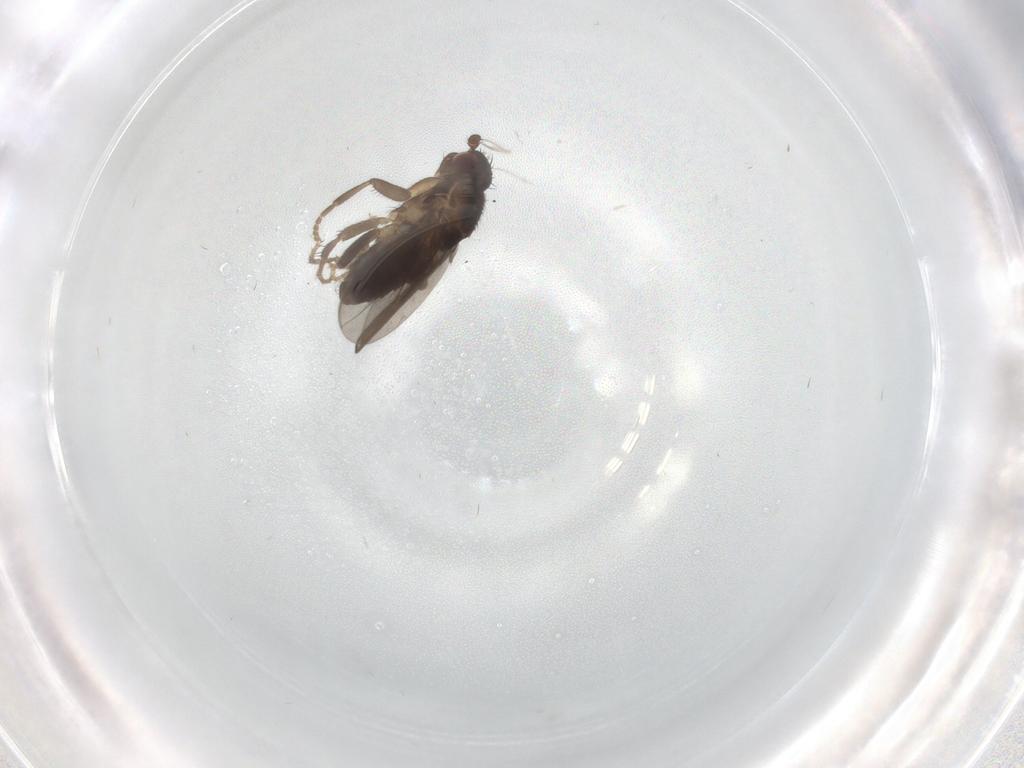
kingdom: Animalia
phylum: Arthropoda
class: Insecta
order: Diptera
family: Sphaeroceridae
